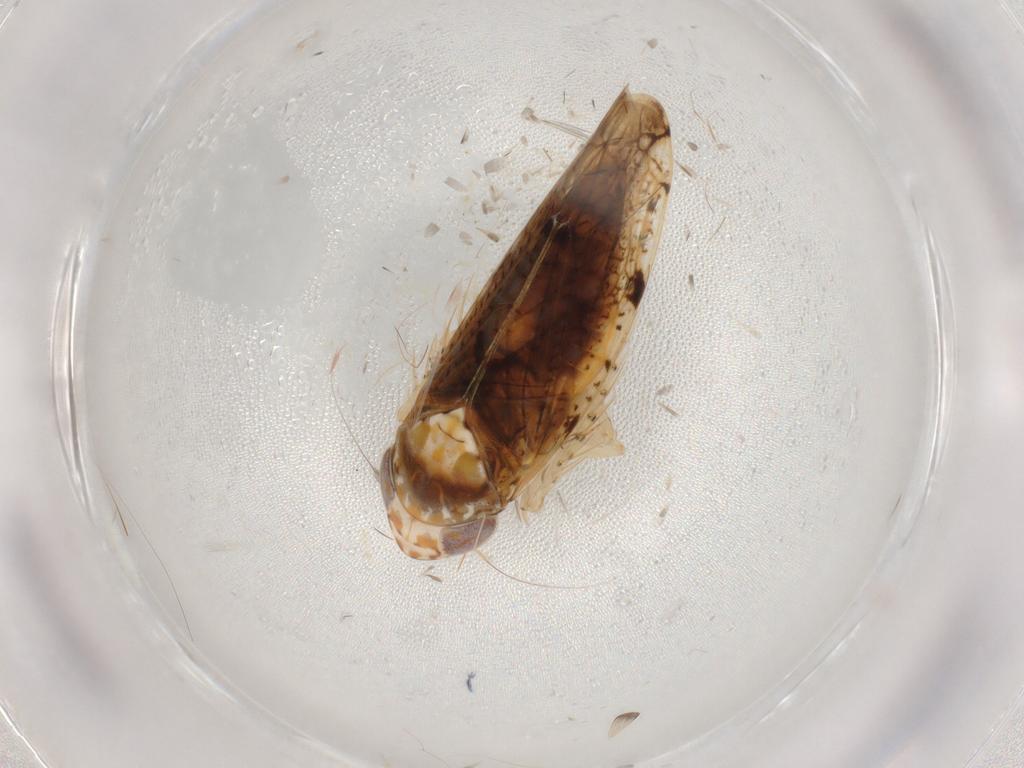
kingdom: Animalia
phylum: Arthropoda
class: Insecta
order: Hemiptera
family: Cicadellidae
